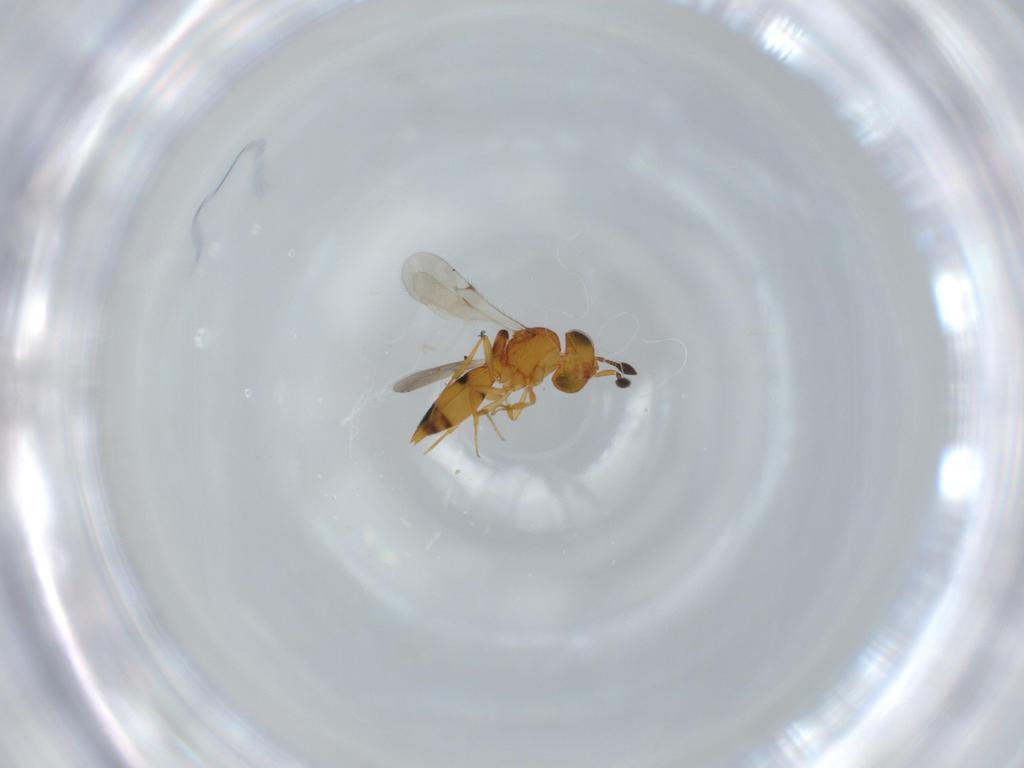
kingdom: Animalia
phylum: Arthropoda
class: Insecta
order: Hymenoptera
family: Scelionidae
